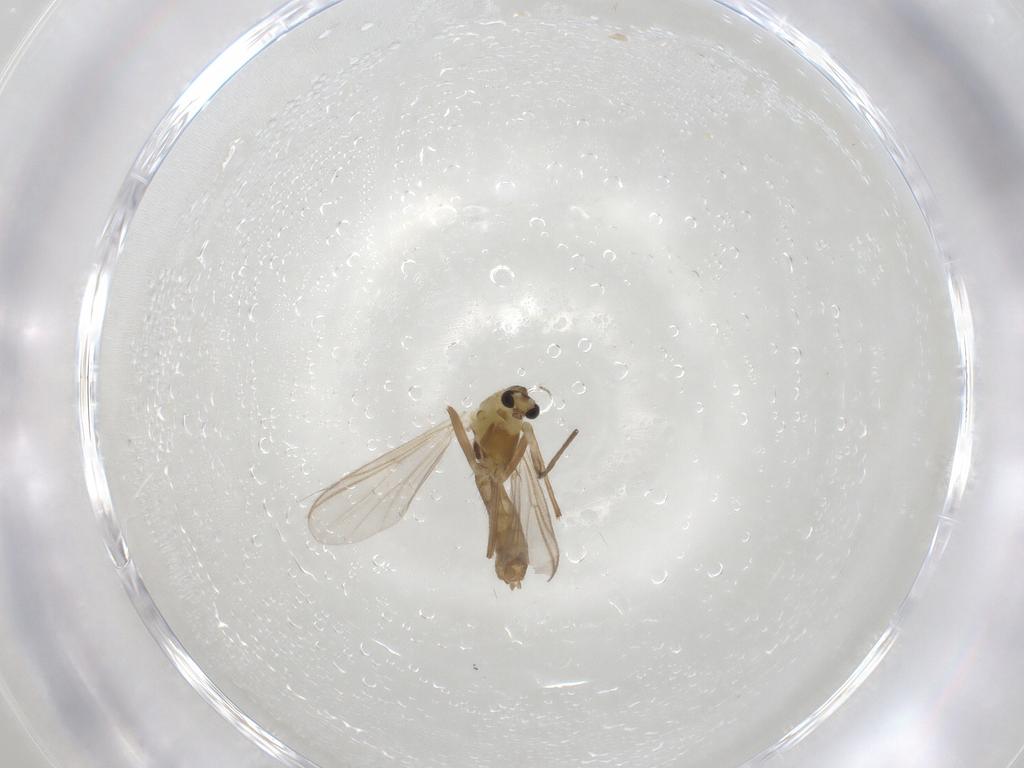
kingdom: Animalia
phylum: Arthropoda
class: Insecta
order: Diptera
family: Chironomidae
